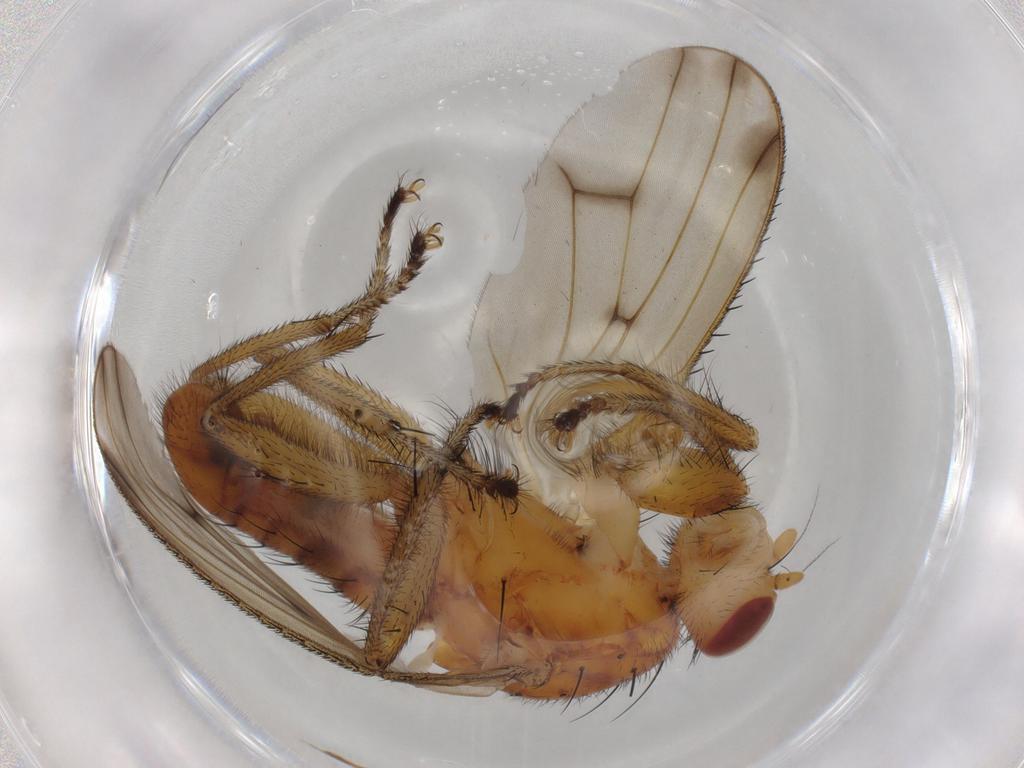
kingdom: Animalia
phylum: Arthropoda
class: Insecta
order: Diptera
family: Heleomyzidae
